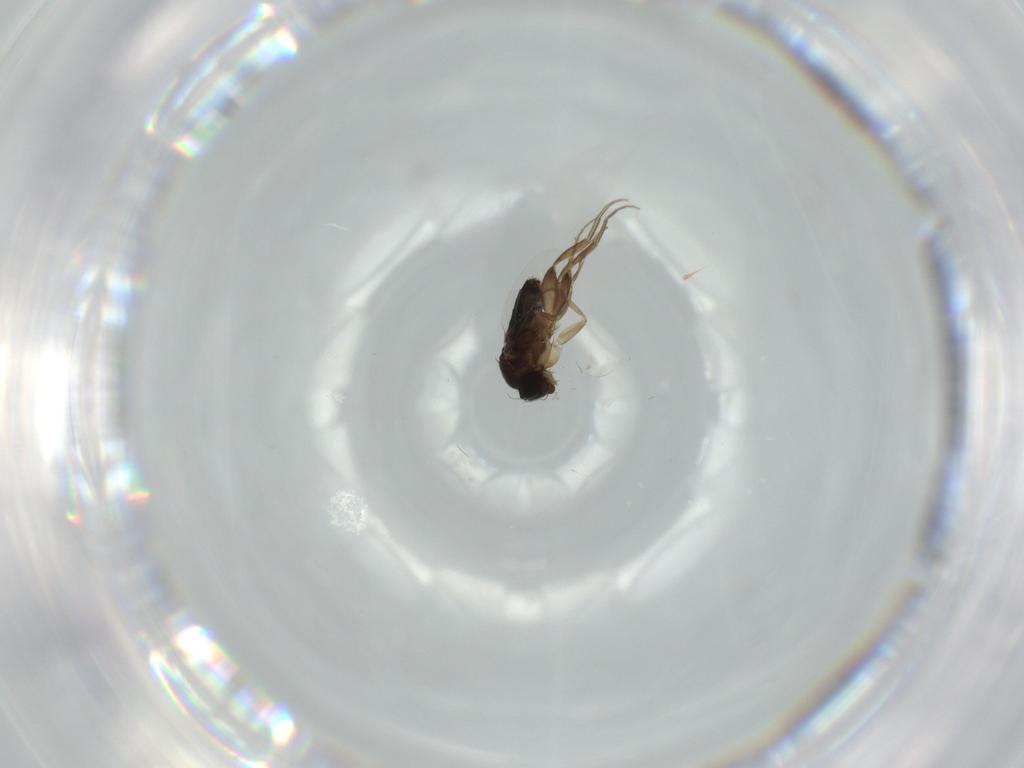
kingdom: Animalia
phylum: Arthropoda
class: Insecta
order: Diptera
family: Phoridae
